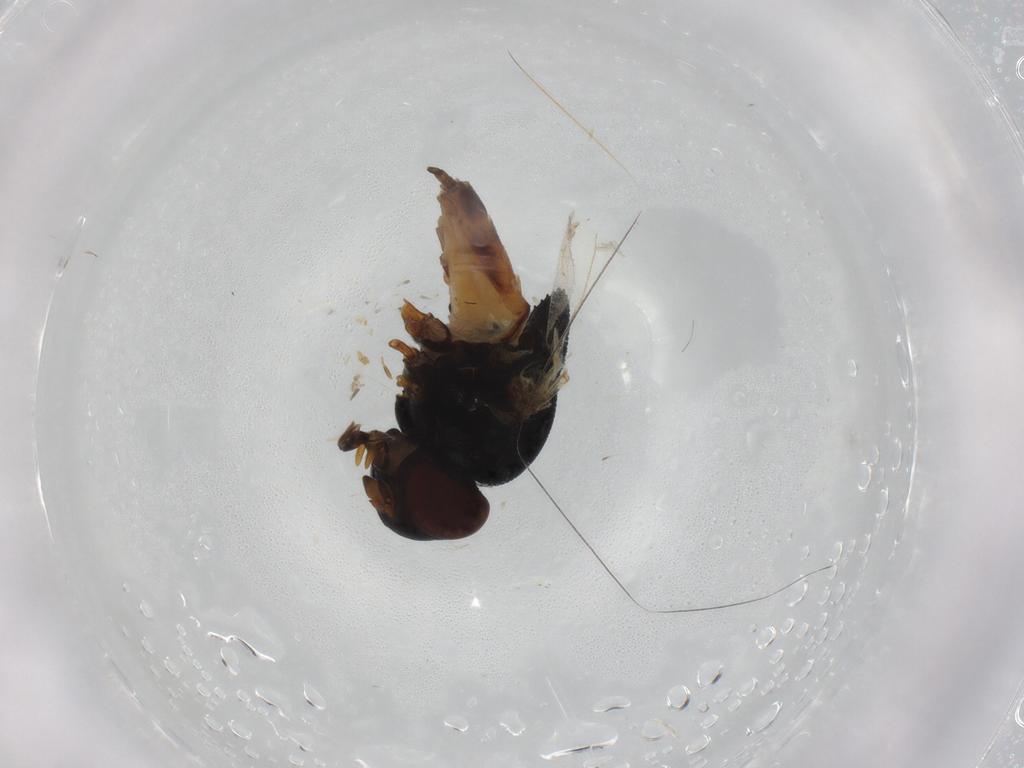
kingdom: Animalia
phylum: Arthropoda
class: Insecta
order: Diptera
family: Chloropidae
